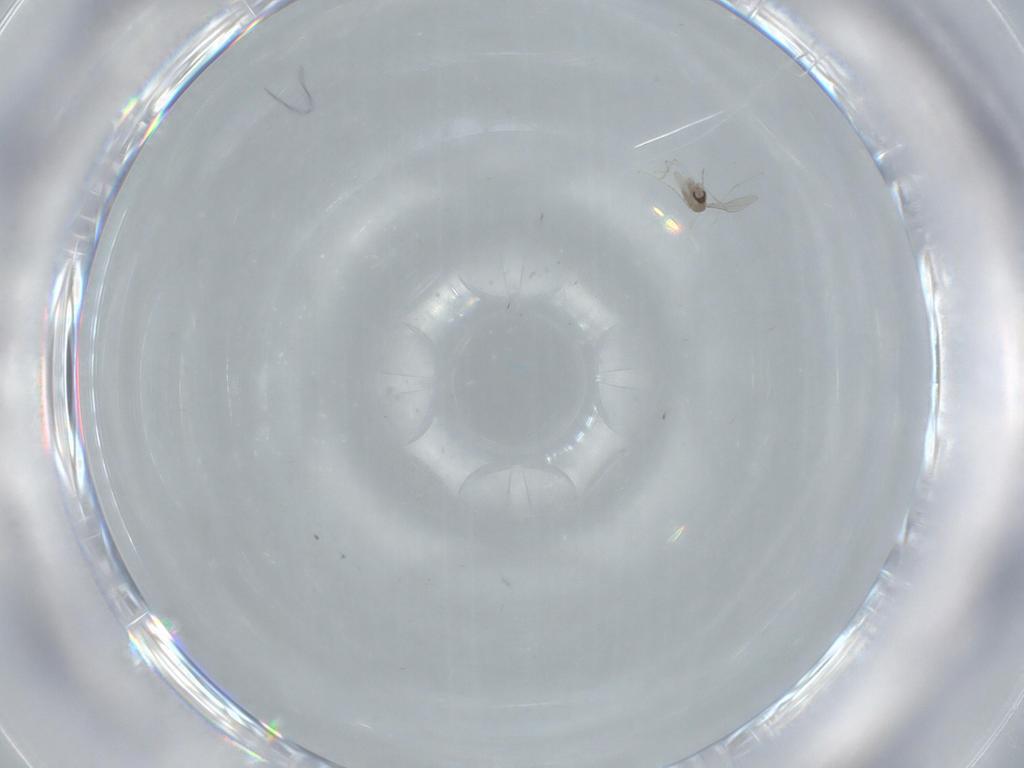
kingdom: Animalia
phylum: Arthropoda
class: Insecta
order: Diptera
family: Cecidomyiidae
